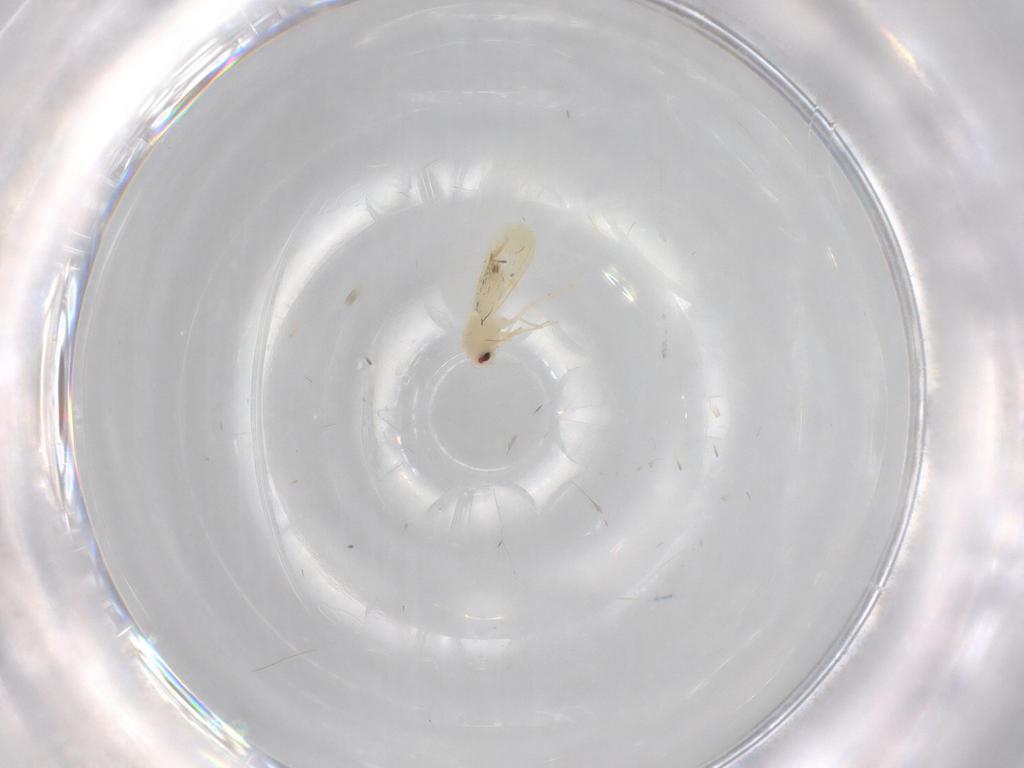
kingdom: Animalia
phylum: Arthropoda
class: Insecta
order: Hemiptera
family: Aleyrodidae
